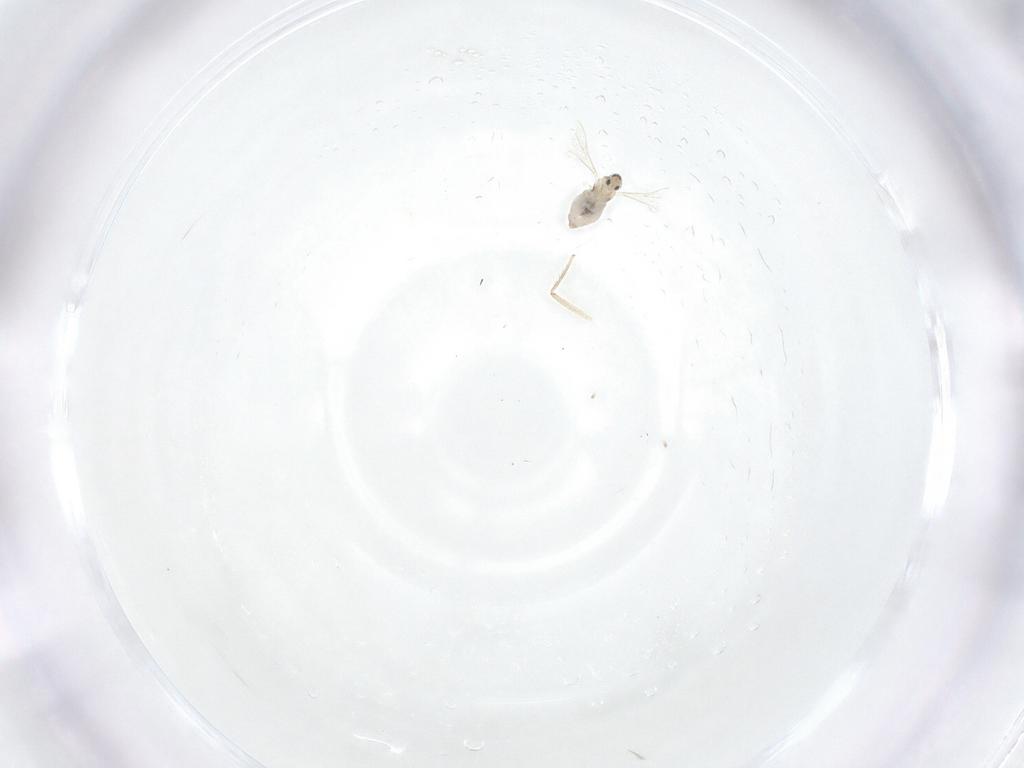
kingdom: Animalia
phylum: Arthropoda
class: Insecta
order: Diptera
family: Cecidomyiidae
